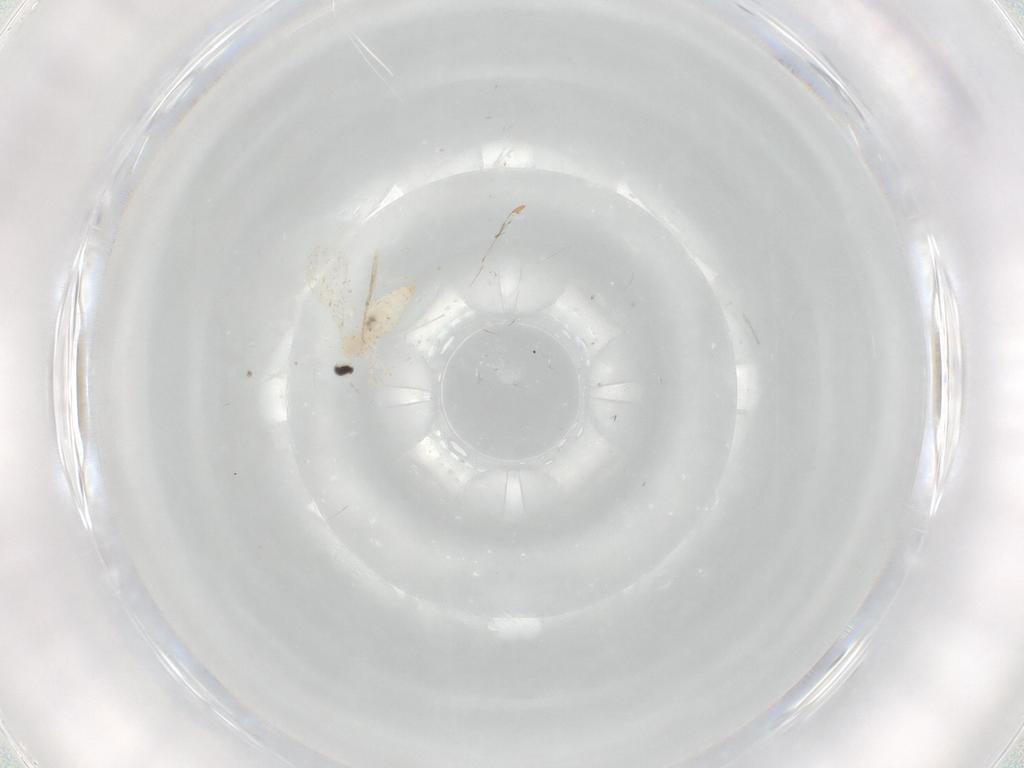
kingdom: Animalia
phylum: Arthropoda
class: Insecta
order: Diptera
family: Cecidomyiidae
